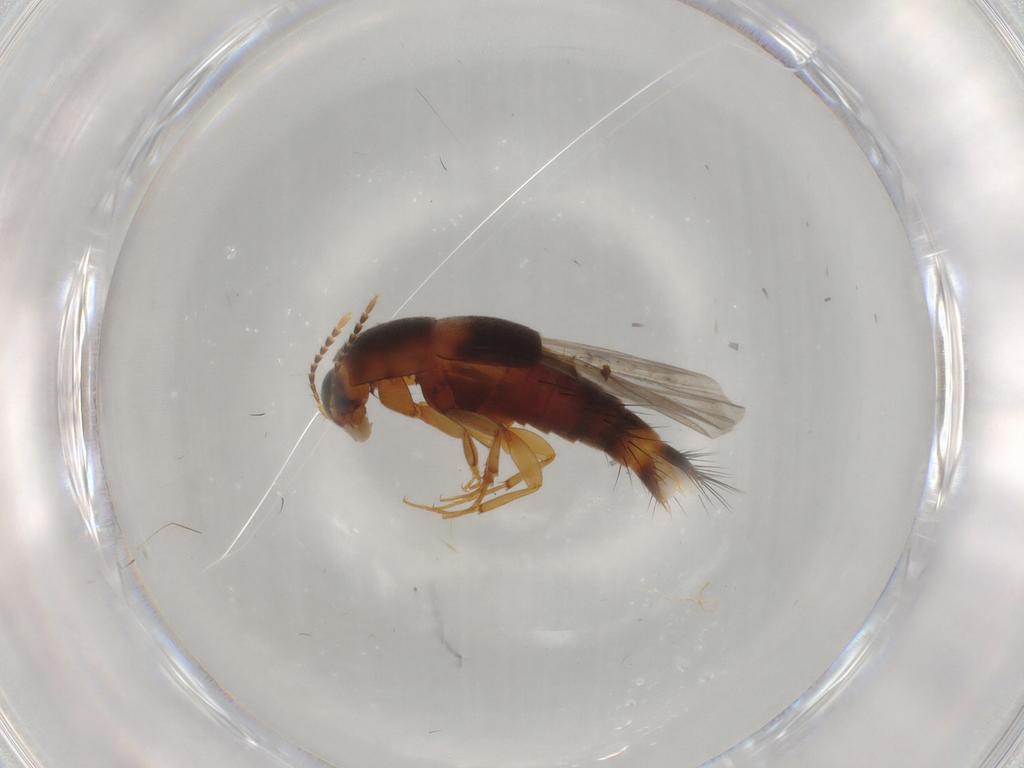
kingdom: Animalia
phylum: Arthropoda
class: Insecta
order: Coleoptera
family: Staphylinidae
